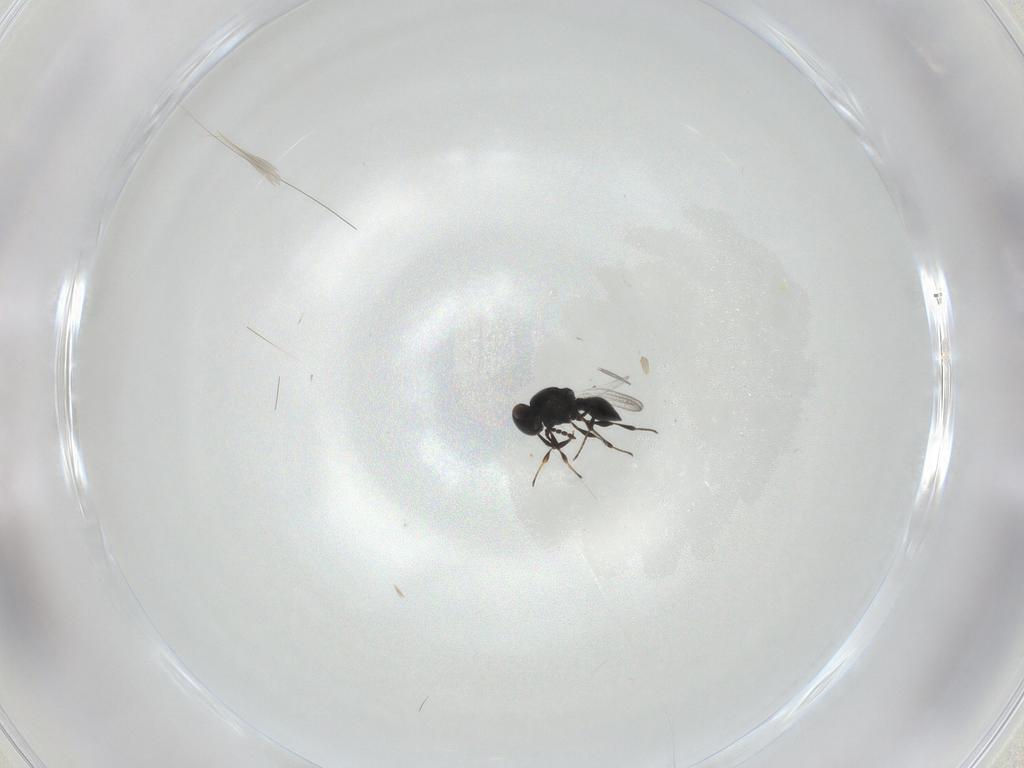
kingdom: Animalia
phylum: Arthropoda
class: Insecta
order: Hymenoptera
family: Platygastridae
